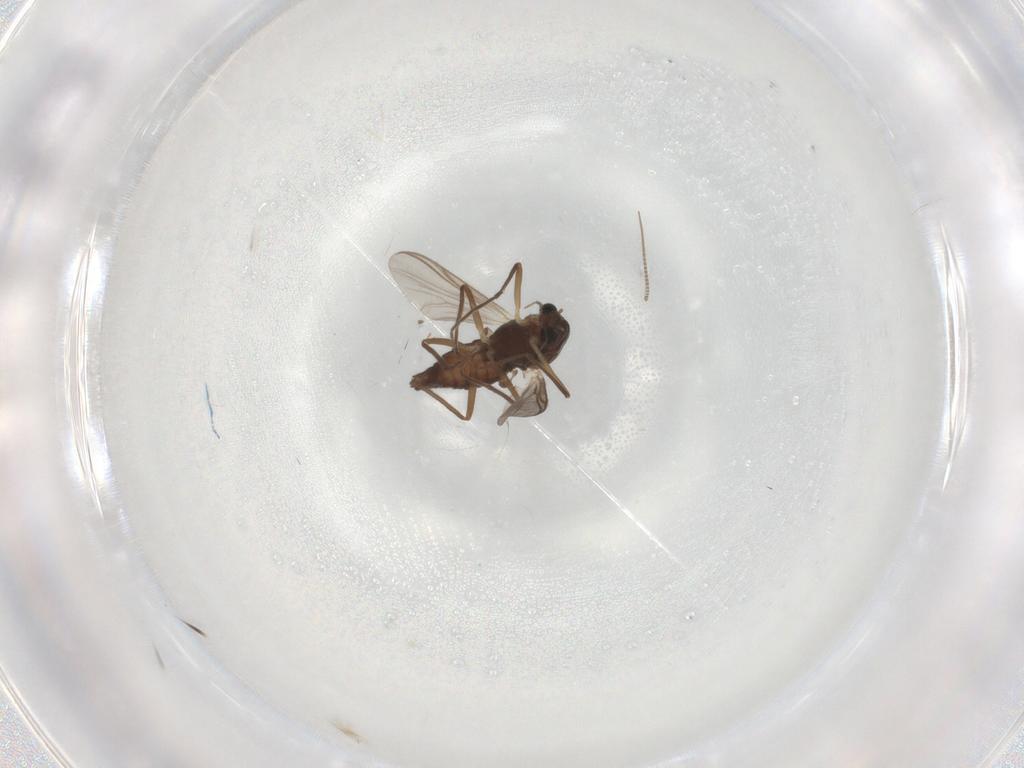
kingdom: Animalia
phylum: Arthropoda
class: Insecta
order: Diptera
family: Chironomidae
